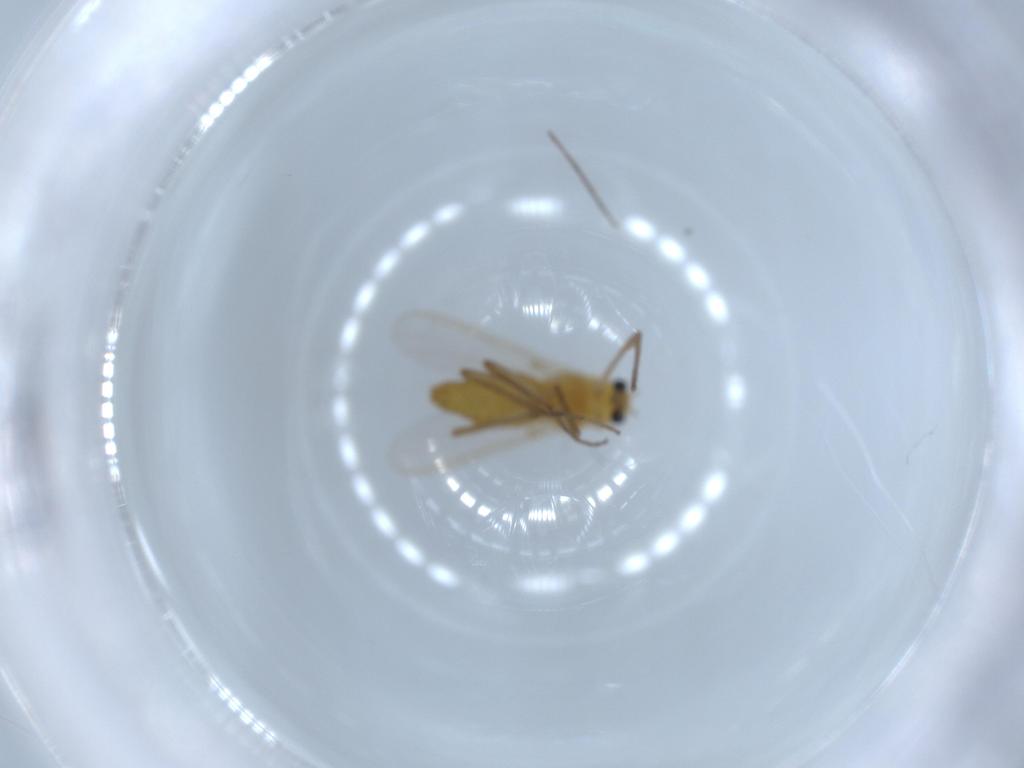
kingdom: Animalia
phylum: Arthropoda
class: Insecta
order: Diptera
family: Chironomidae
